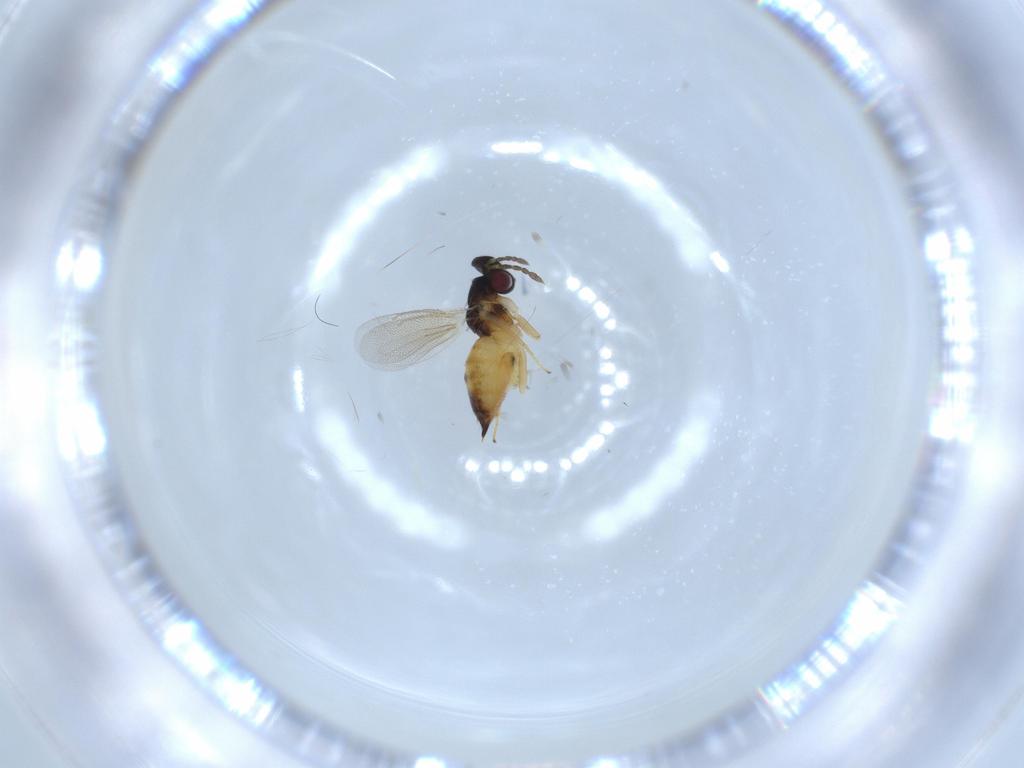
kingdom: Animalia
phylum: Arthropoda
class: Insecta
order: Hymenoptera
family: Eulophidae
